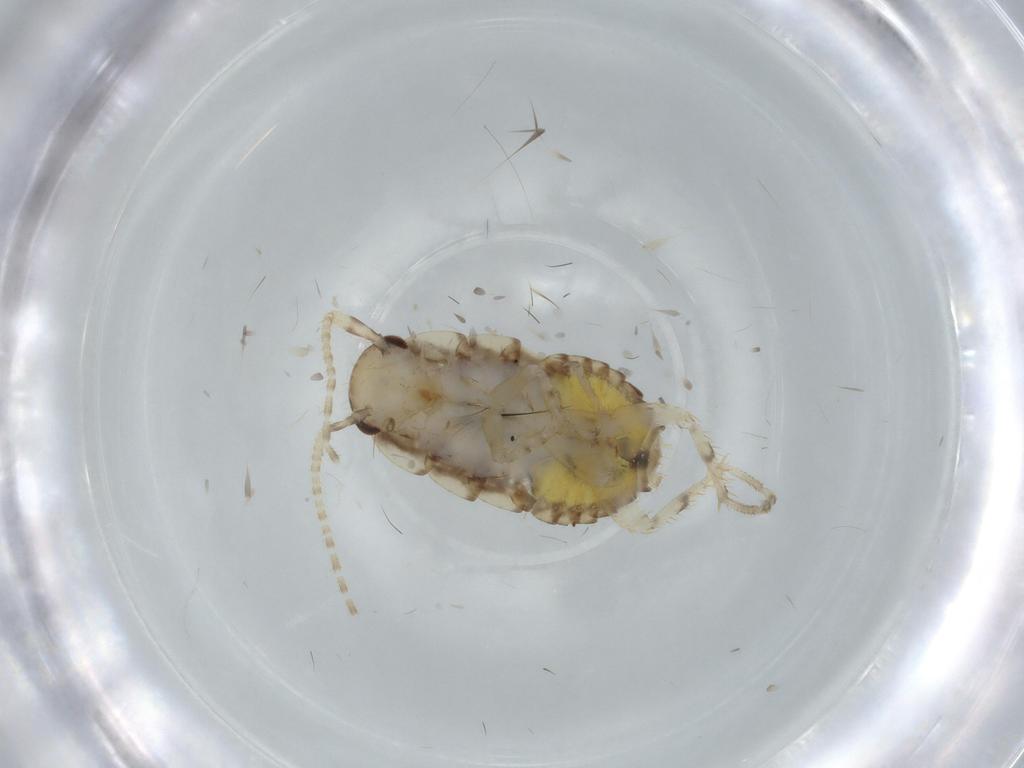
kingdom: Animalia
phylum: Arthropoda
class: Insecta
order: Blattodea
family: Ectobiidae
